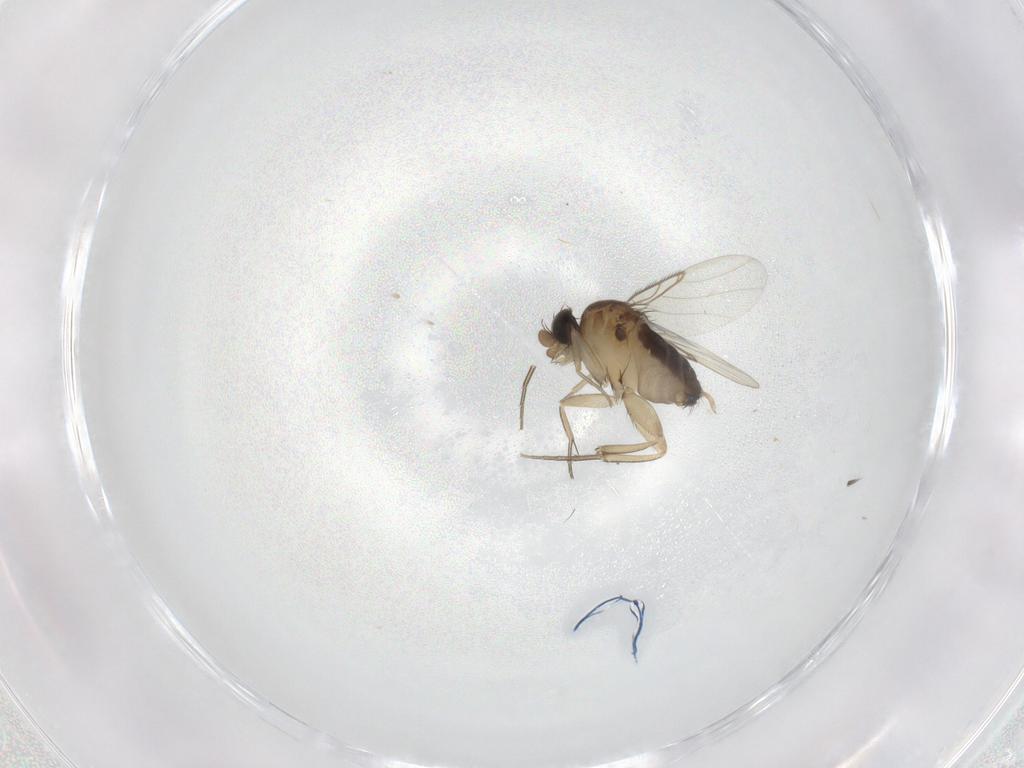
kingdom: Animalia
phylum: Arthropoda
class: Insecta
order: Diptera
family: Phoridae
